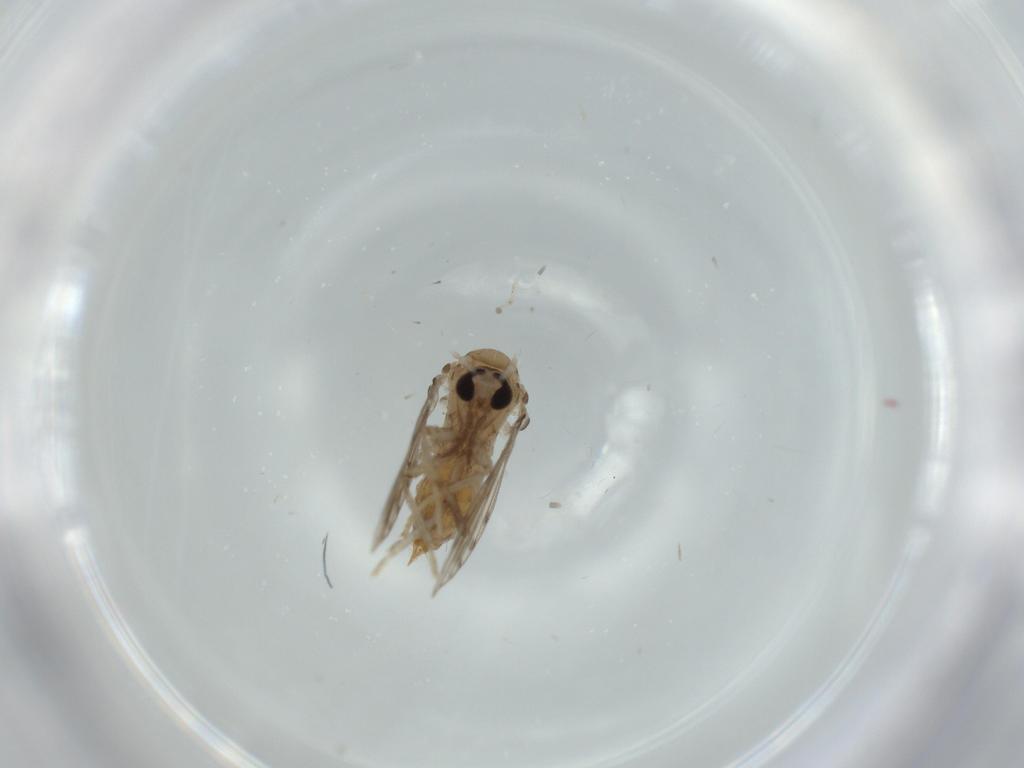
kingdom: Animalia
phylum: Arthropoda
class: Insecta
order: Diptera
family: Psychodidae
